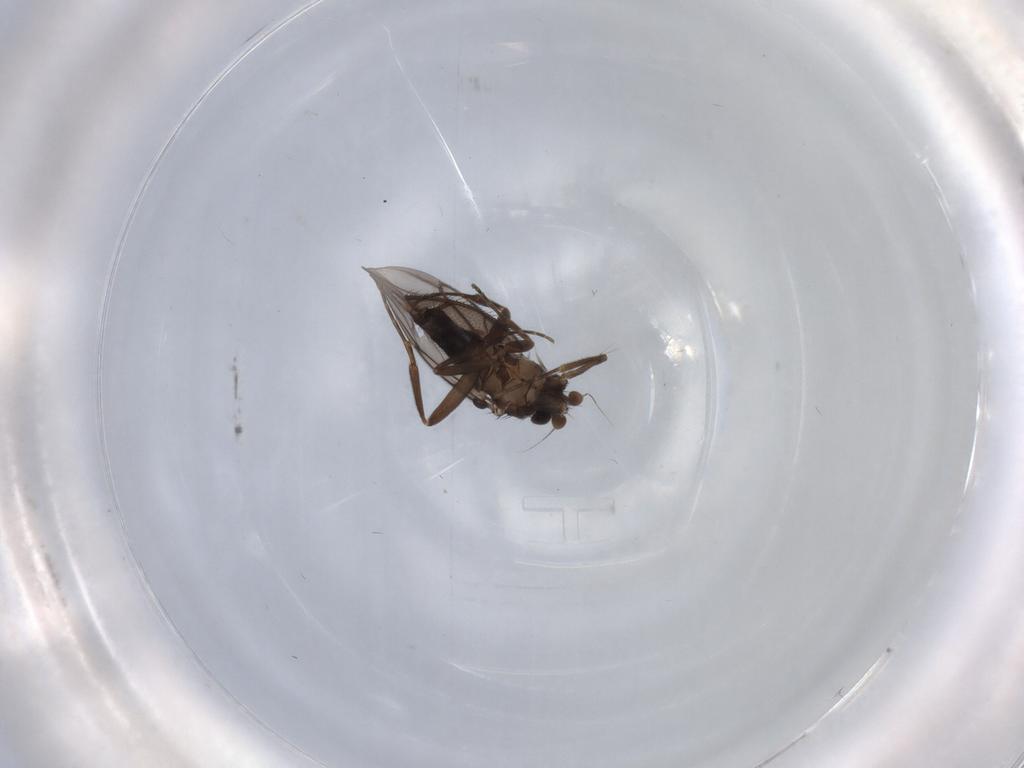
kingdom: Animalia
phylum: Arthropoda
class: Insecta
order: Diptera
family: Ditomyiidae
